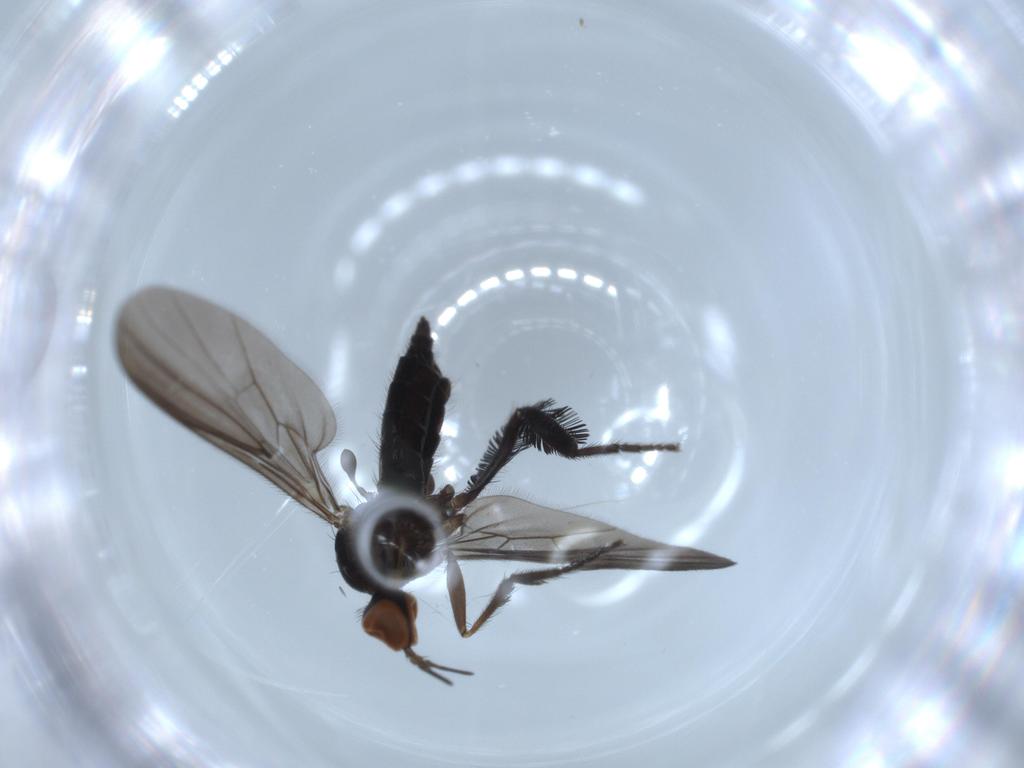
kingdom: Animalia
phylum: Arthropoda
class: Insecta
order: Diptera
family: Empididae
